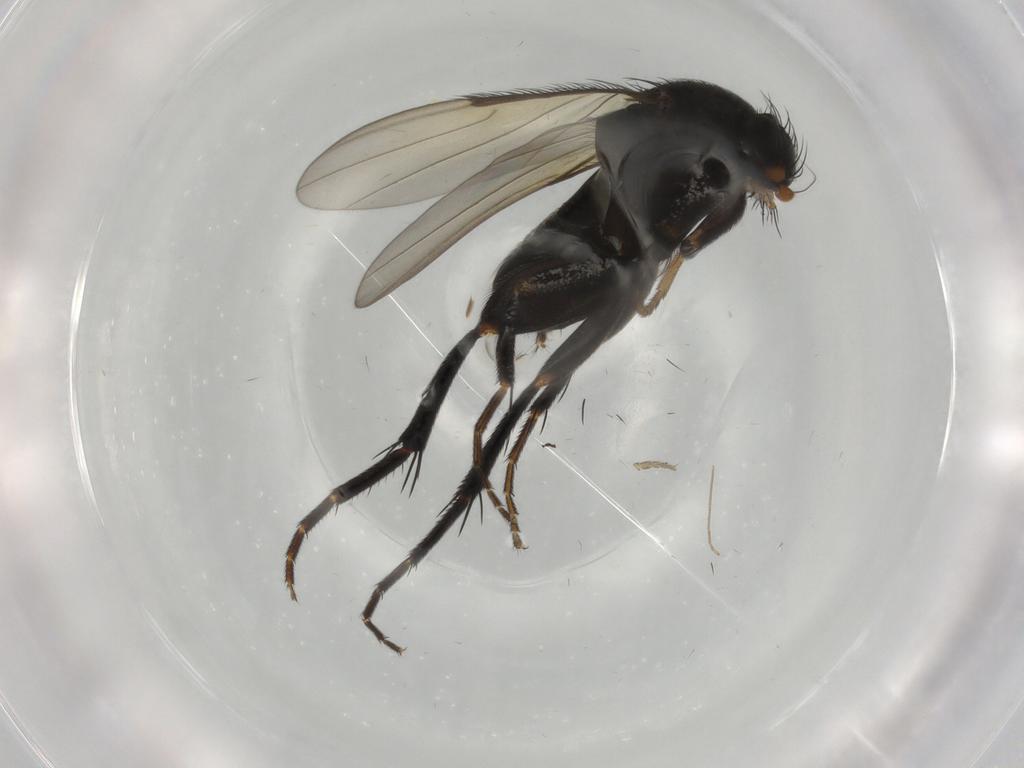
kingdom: Animalia
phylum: Arthropoda
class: Insecta
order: Diptera
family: Phoridae
